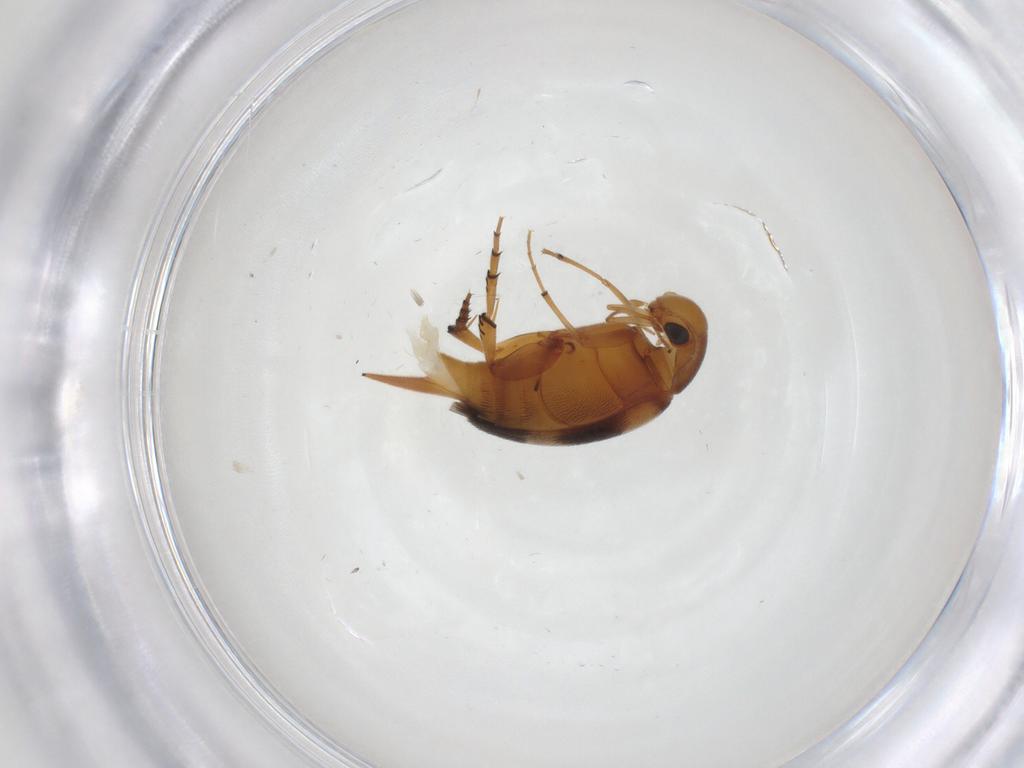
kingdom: Animalia
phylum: Arthropoda
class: Insecta
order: Coleoptera
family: Mordellidae
